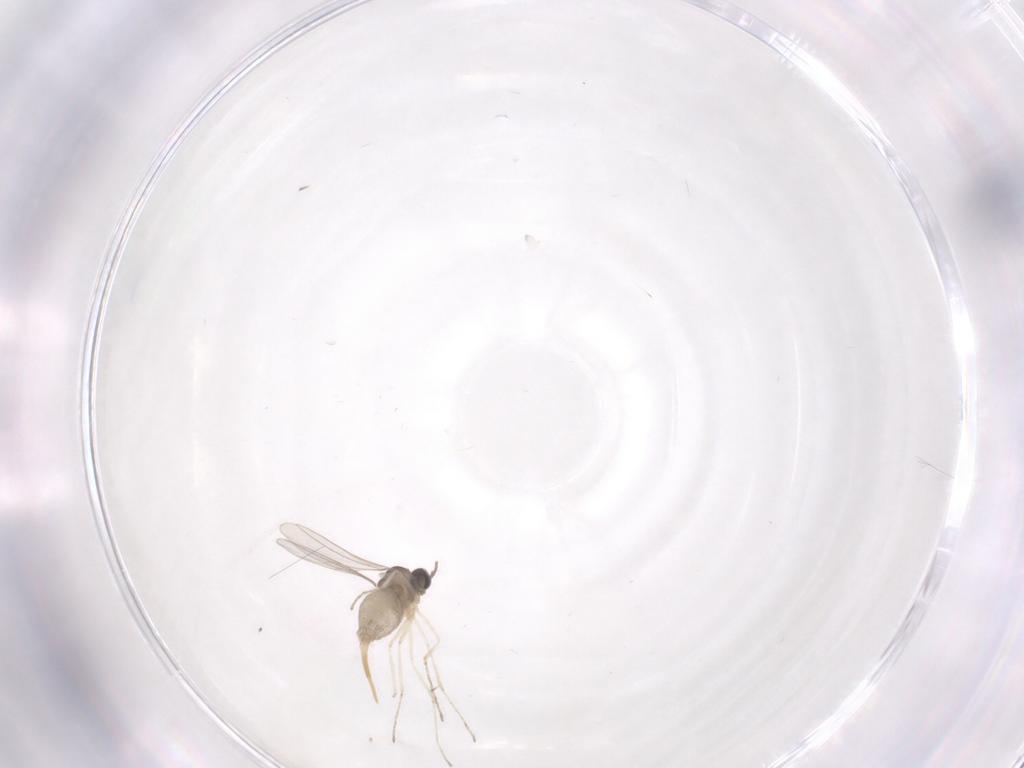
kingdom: Animalia
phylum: Arthropoda
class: Insecta
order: Diptera
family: Cecidomyiidae
